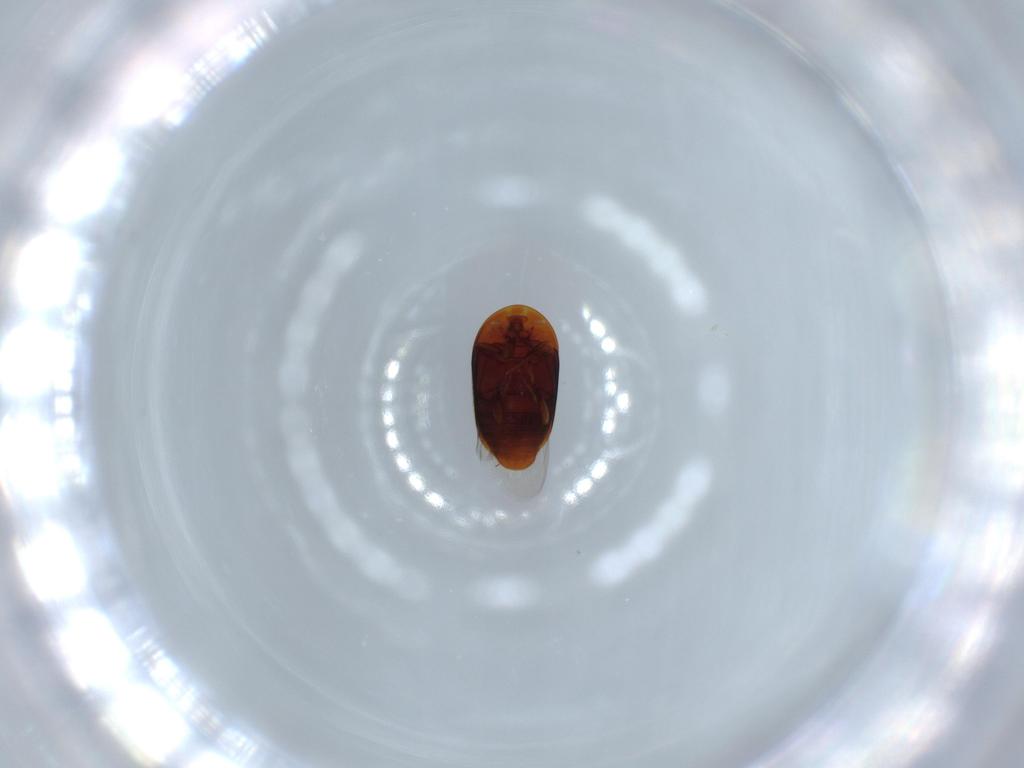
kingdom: Animalia
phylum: Arthropoda
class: Insecta
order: Coleoptera
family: Corylophidae
